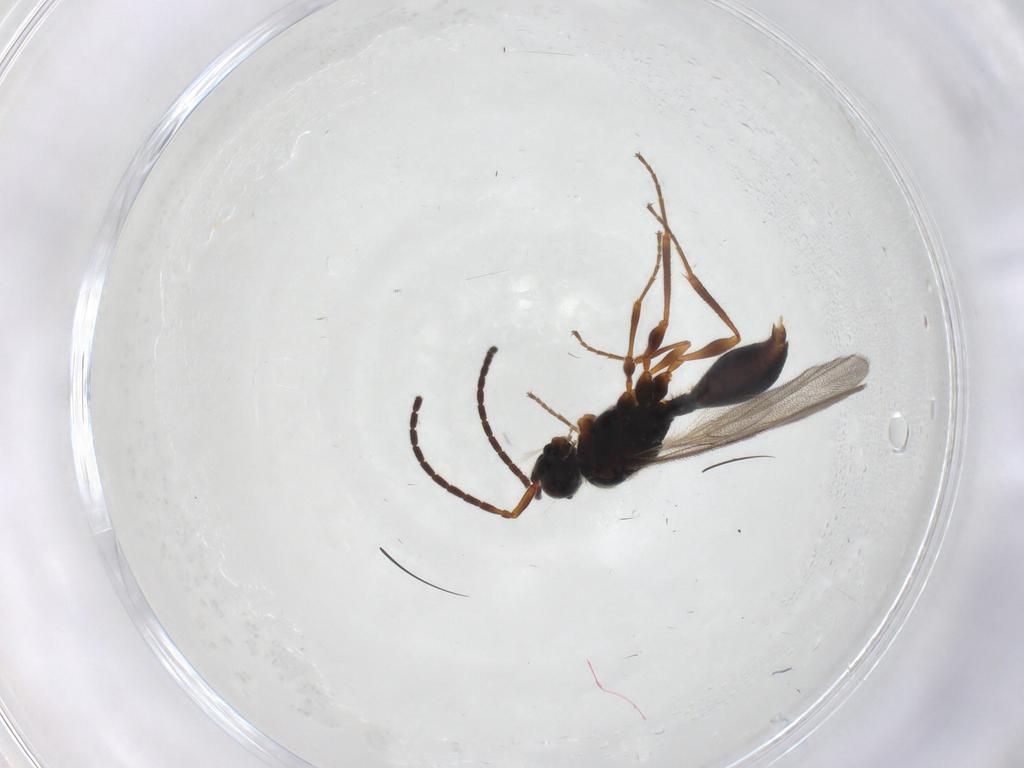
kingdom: Animalia
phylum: Arthropoda
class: Insecta
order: Hymenoptera
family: Vespidae
